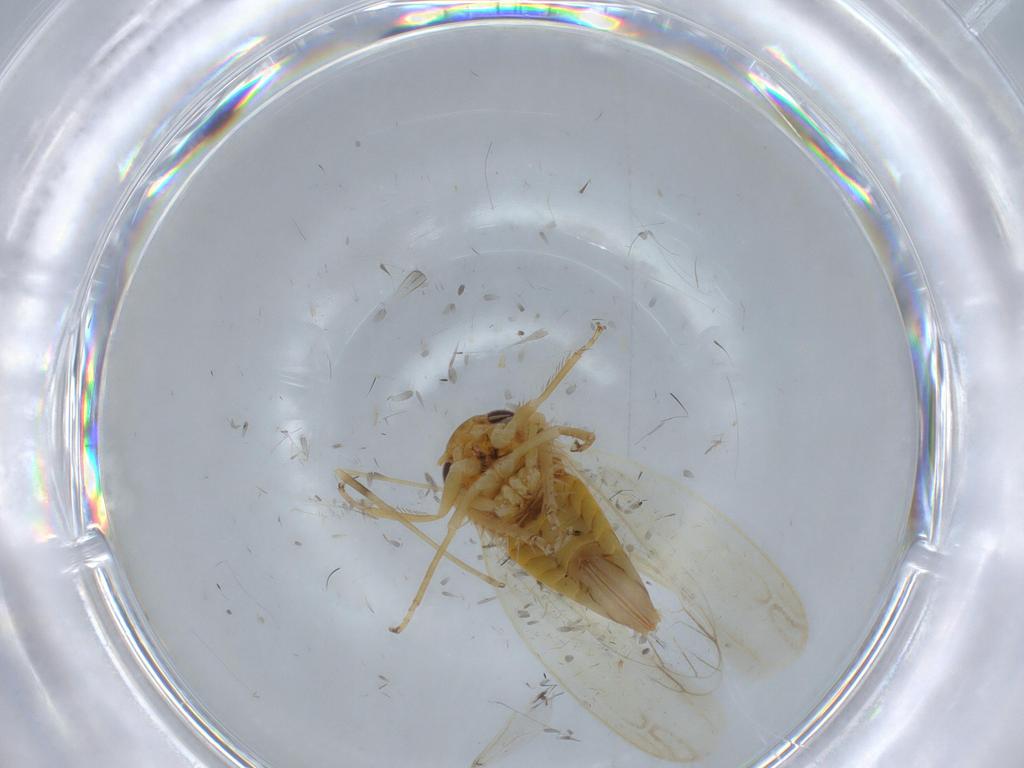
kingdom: Animalia
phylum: Arthropoda
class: Insecta
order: Hemiptera
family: Cicadellidae
